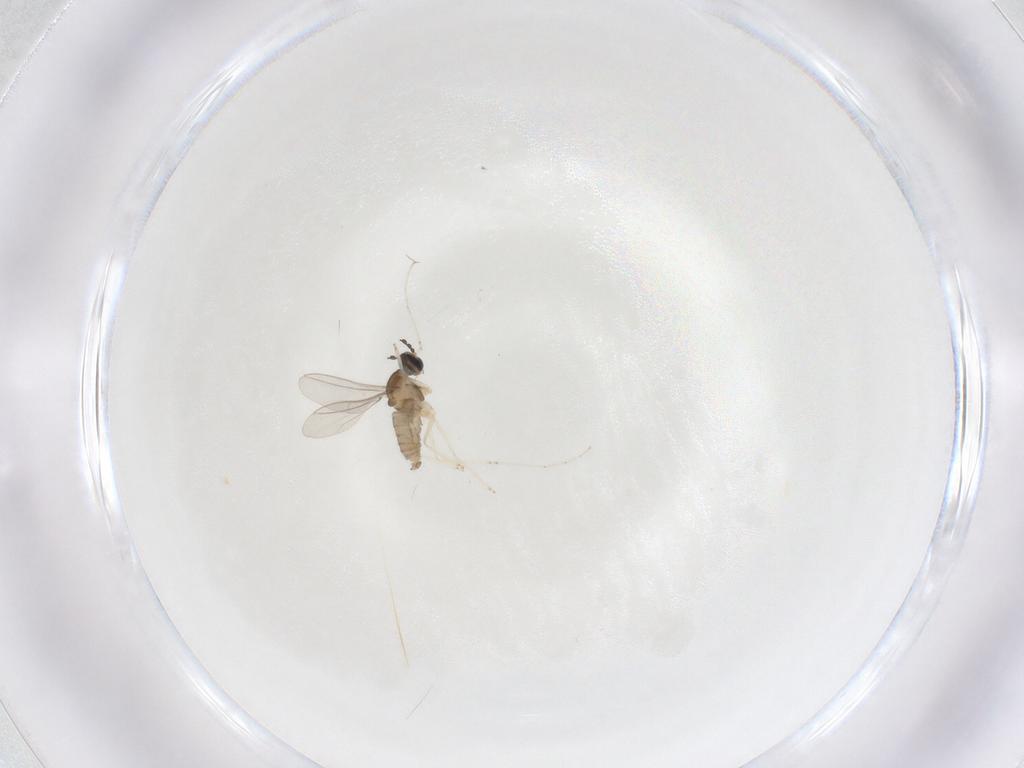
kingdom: Animalia
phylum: Arthropoda
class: Insecta
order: Diptera
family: Cecidomyiidae
